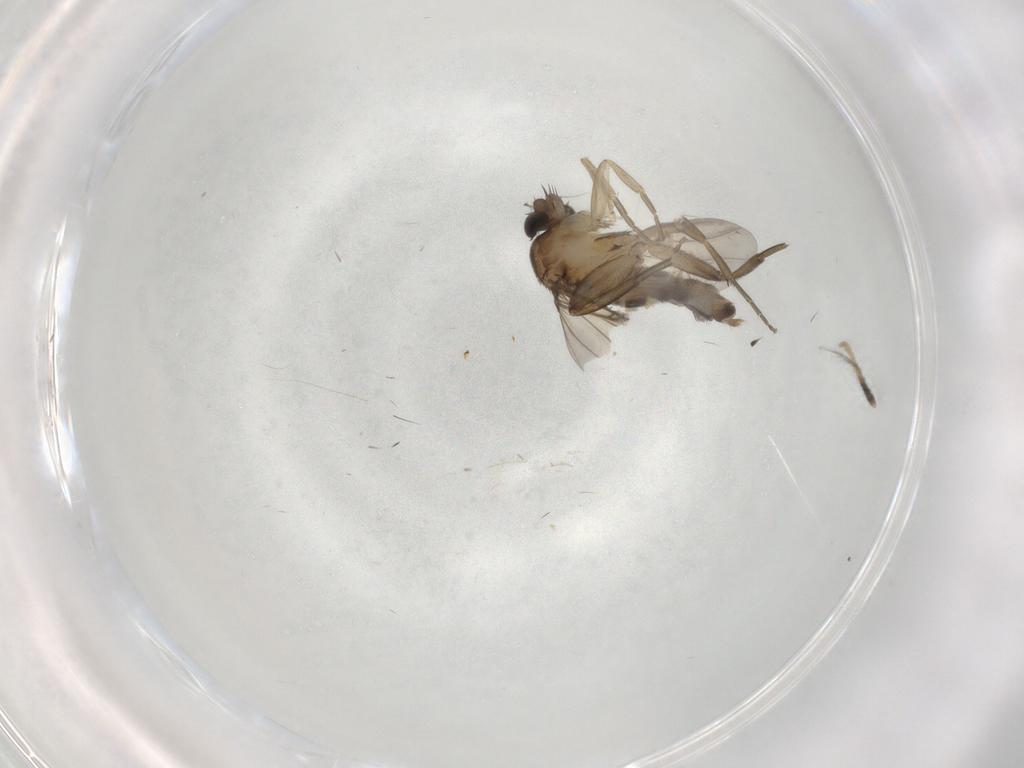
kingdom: Animalia
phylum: Arthropoda
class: Insecta
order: Diptera
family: Phoridae
